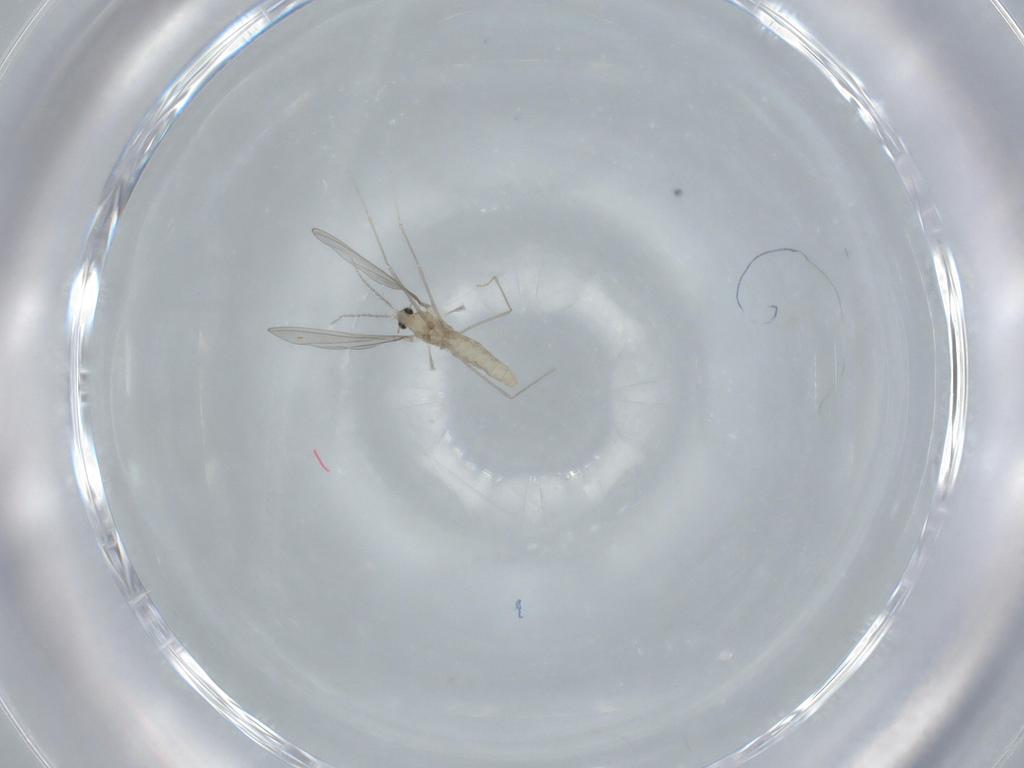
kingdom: Animalia
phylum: Arthropoda
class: Insecta
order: Diptera
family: Cecidomyiidae
